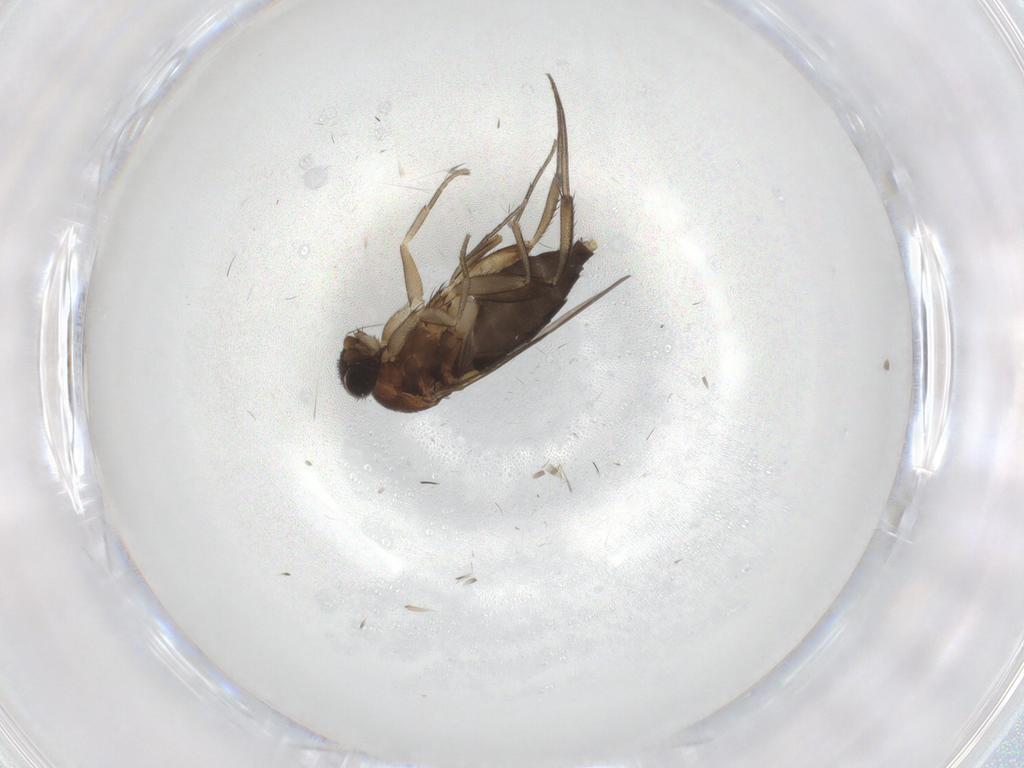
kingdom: Animalia
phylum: Arthropoda
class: Insecta
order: Diptera
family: Phoridae
